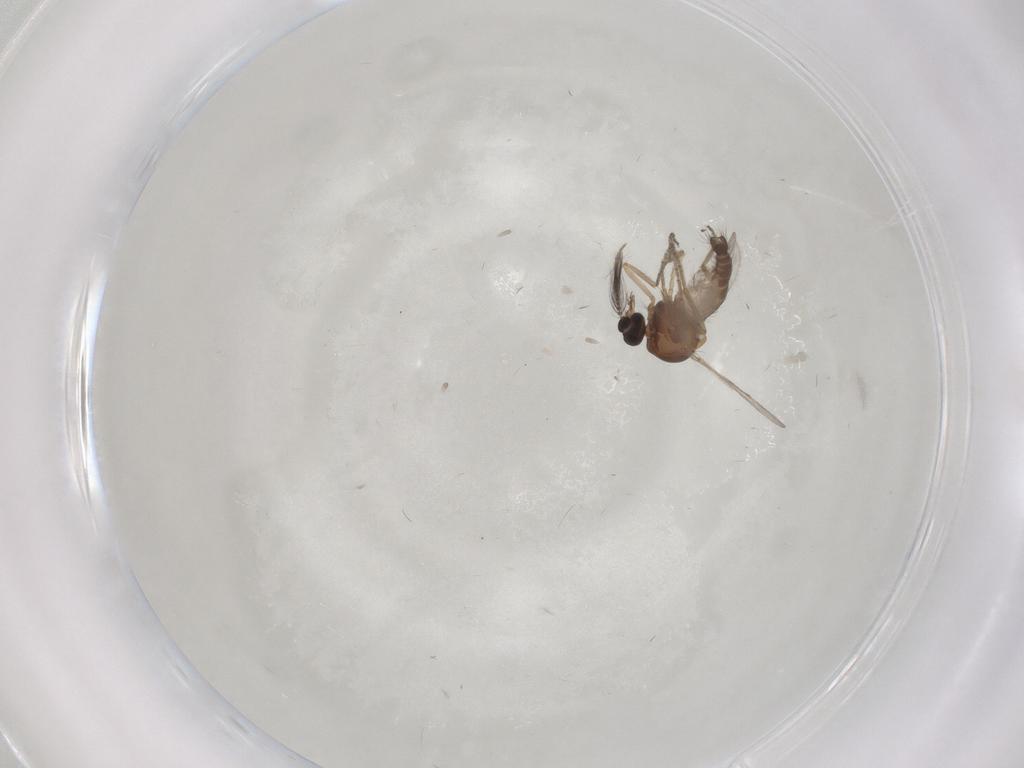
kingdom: Animalia
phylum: Arthropoda
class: Insecta
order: Diptera
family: Ceratopogonidae
